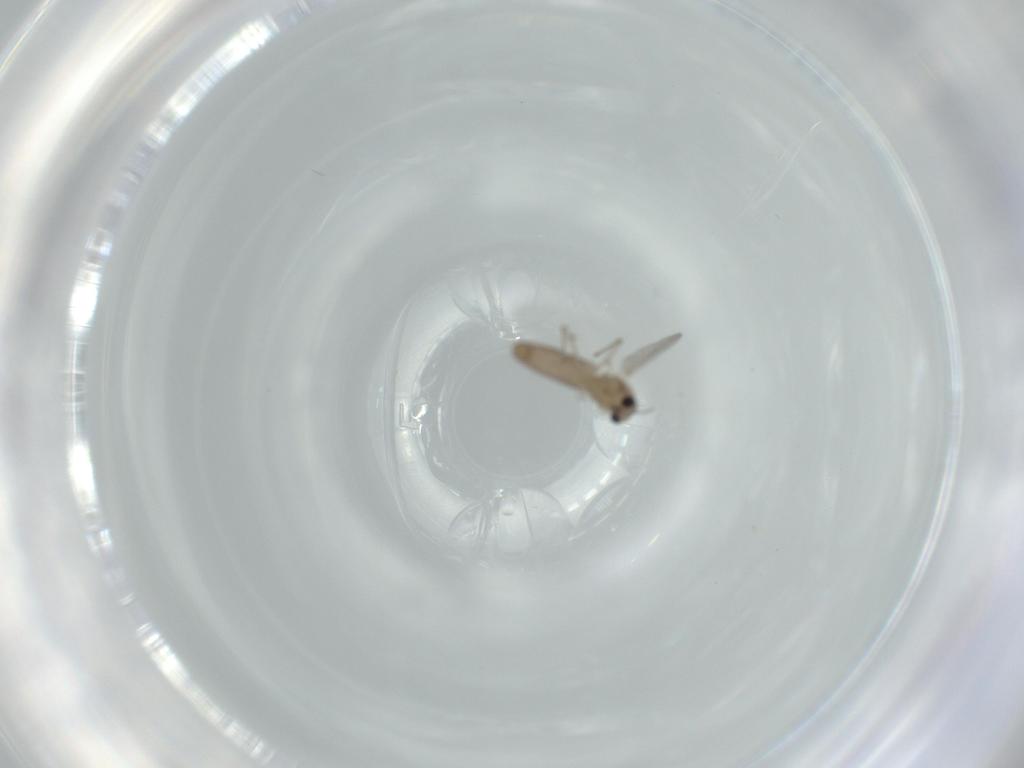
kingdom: Animalia
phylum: Arthropoda
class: Insecta
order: Diptera
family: Chironomidae
